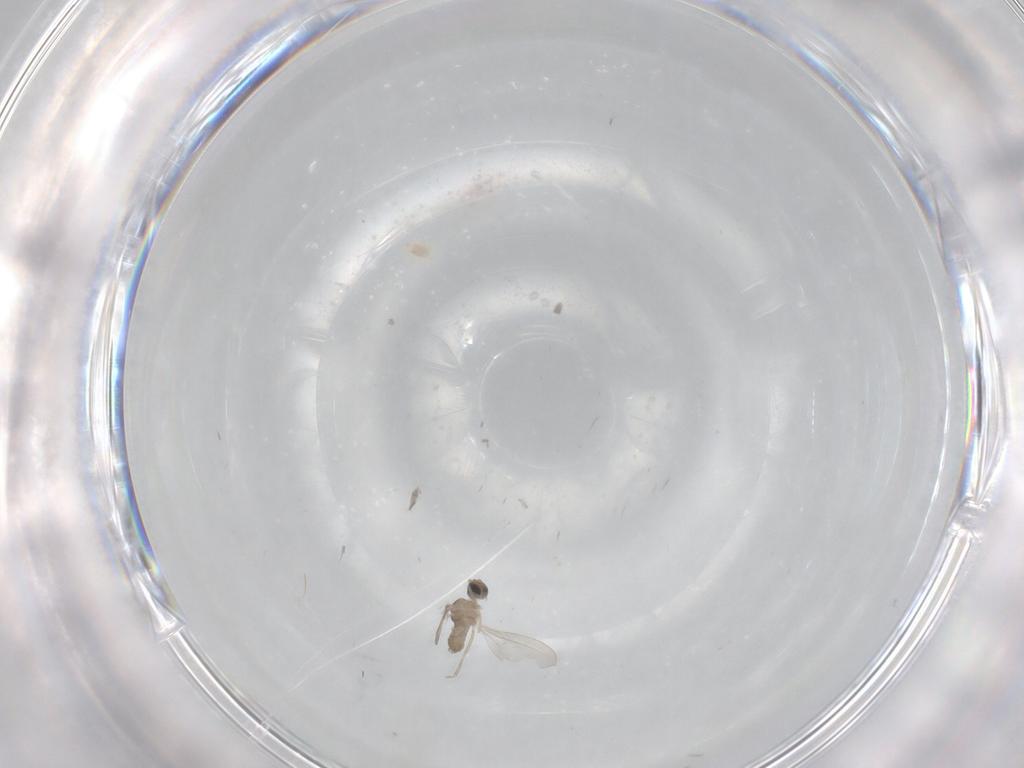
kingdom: Animalia
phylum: Arthropoda
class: Insecta
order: Diptera
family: Cecidomyiidae
